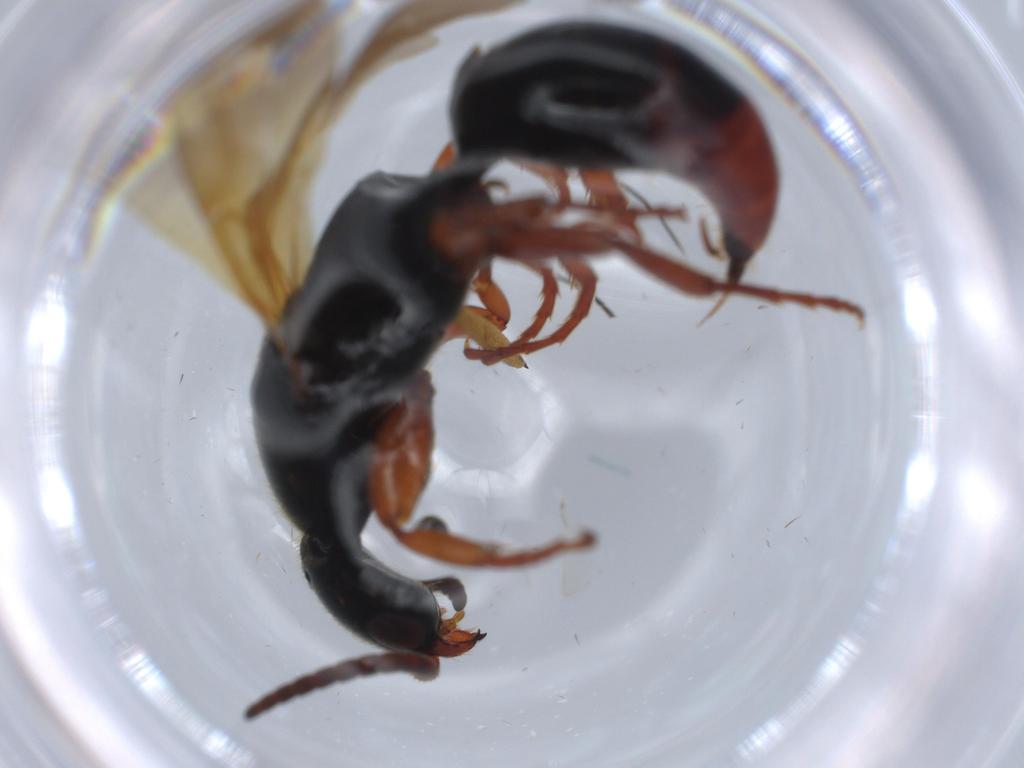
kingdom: Animalia
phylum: Arthropoda
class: Insecta
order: Hymenoptera
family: Bethylidae
